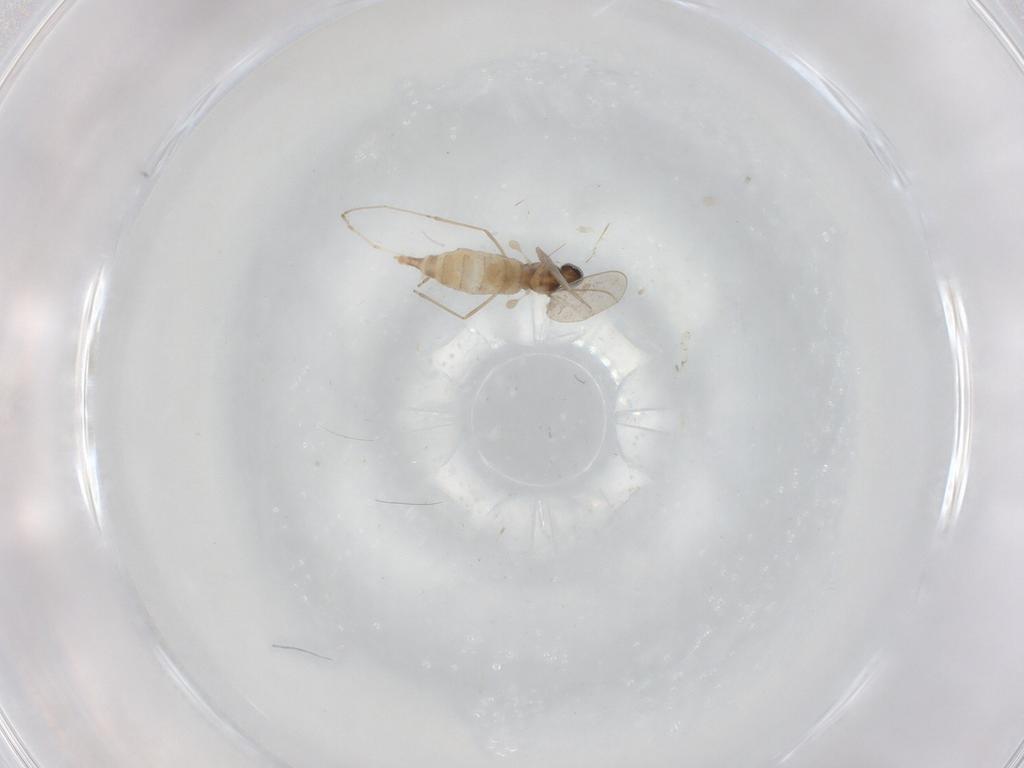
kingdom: Animalia
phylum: Arthropoda
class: Insecta
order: Diptera
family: Cecidomyiidae
